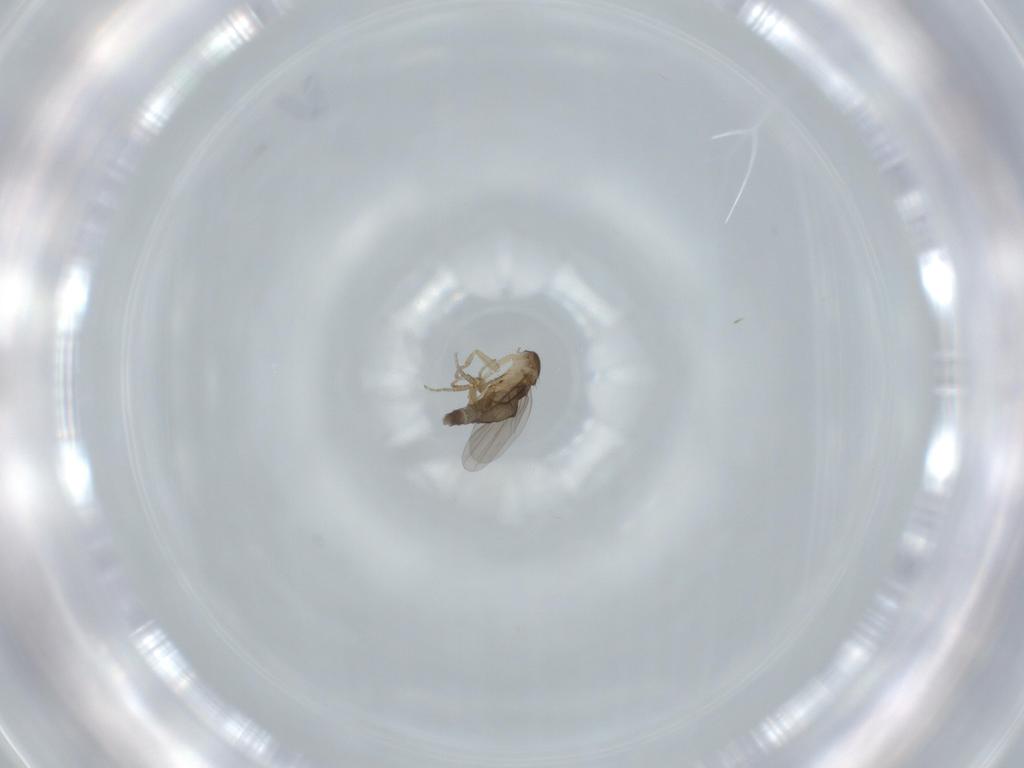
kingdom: Animalia
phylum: Arthropoda
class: Insecta
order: Diptera
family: Phoridae
